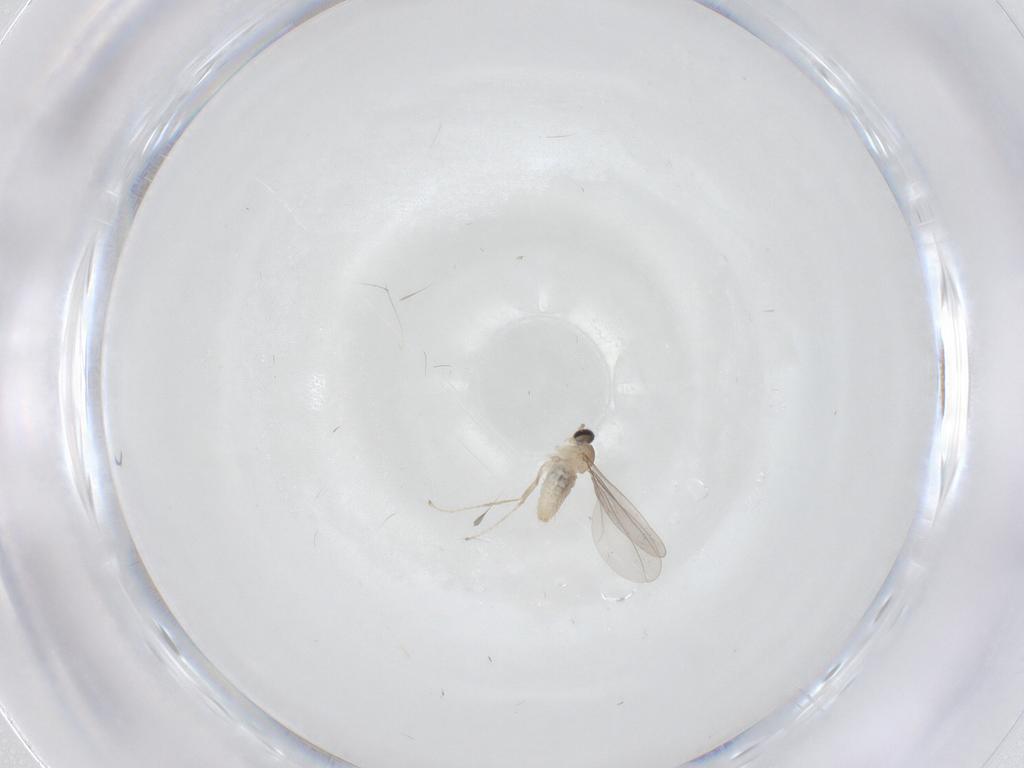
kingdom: Animalia
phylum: Arthropoda
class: Insecta
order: Diptera
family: Cecidomyiidae
